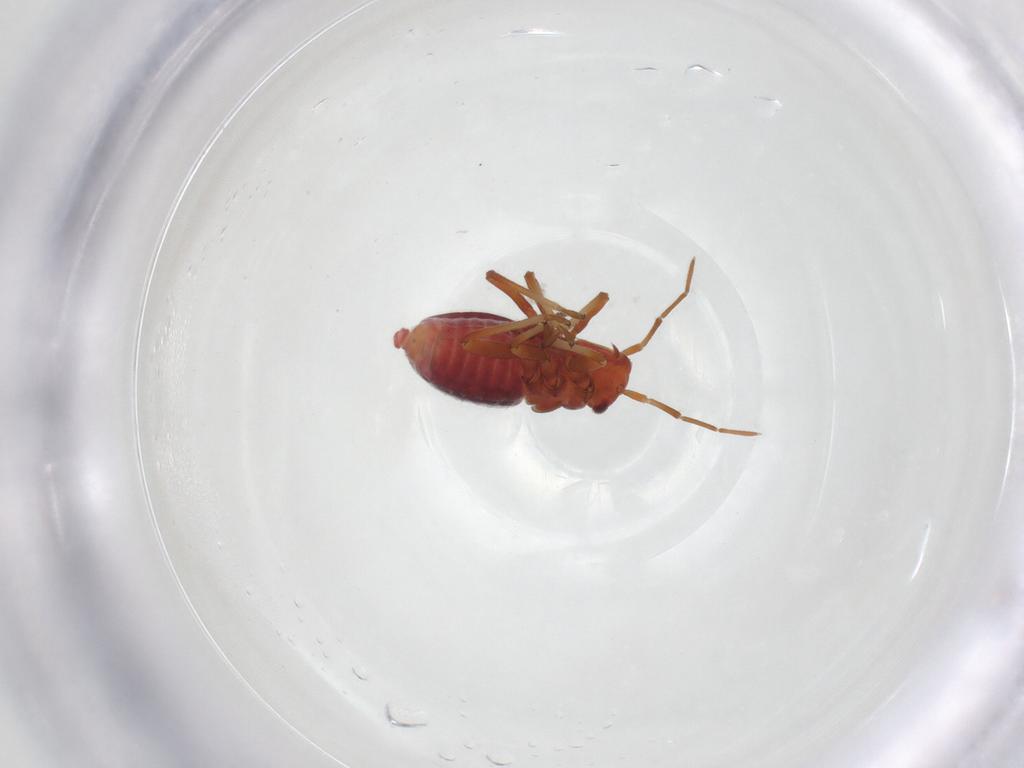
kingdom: Animalia
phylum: Arthropoda
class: Insecta
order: Hemiptera
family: Miridae
